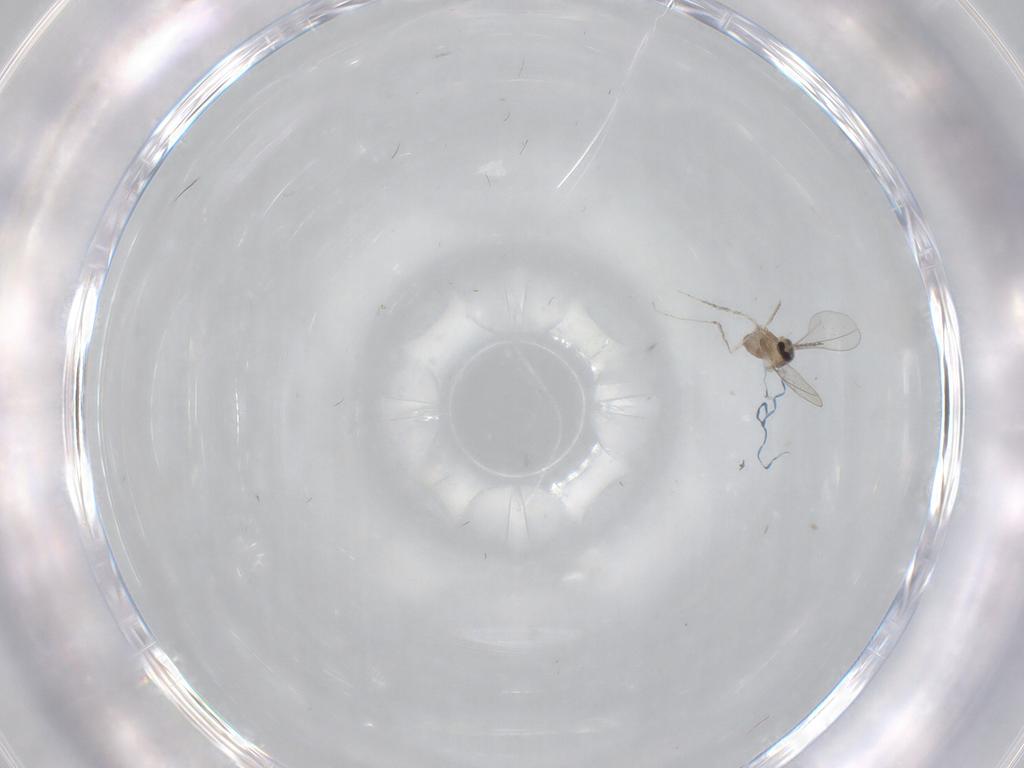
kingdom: Animalia
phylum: Arthropoda
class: Insecta
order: Diptera
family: Cecidomyiidae
